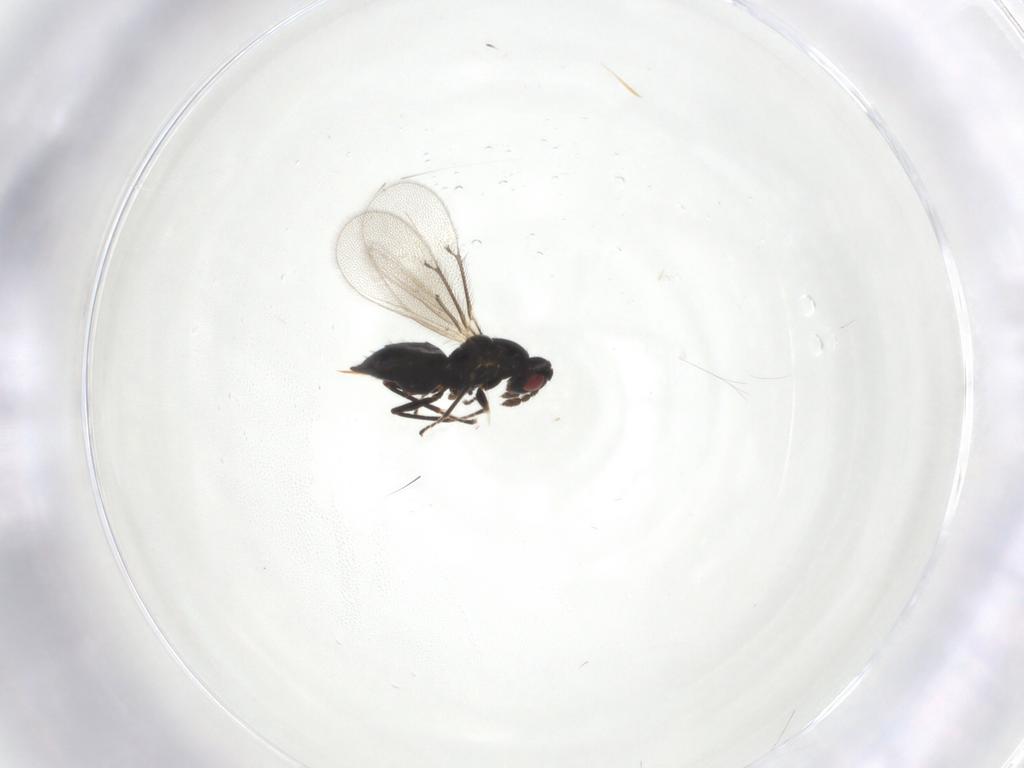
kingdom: Animalia
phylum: Arthropoda
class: Insecta
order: Hymenoptera
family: Eulophidae
